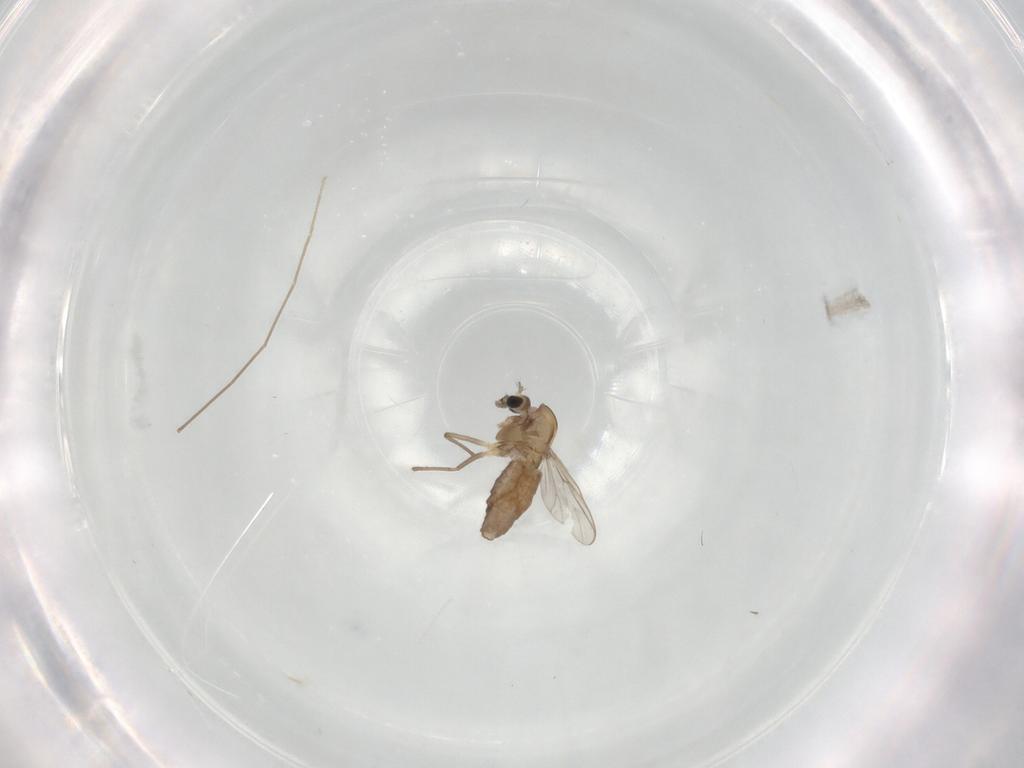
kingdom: Animalia
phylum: Arthropoda
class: Insecta
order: Diptera
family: Chironomidae
